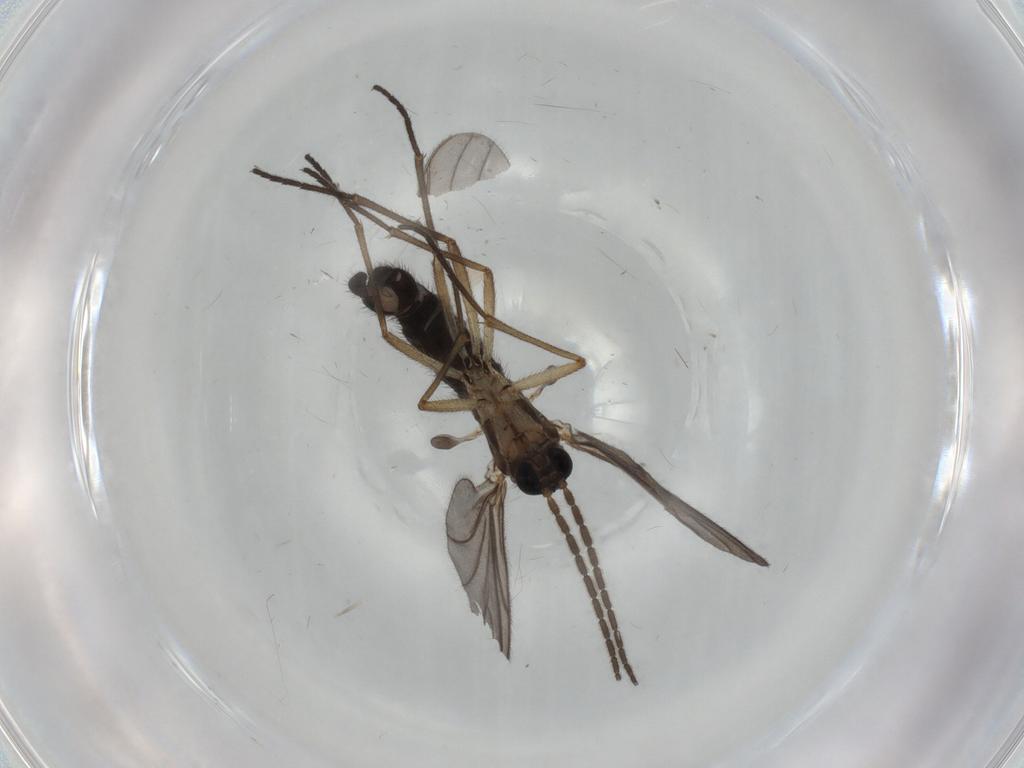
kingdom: Animalia
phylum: Arthropoda
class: Insecta
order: Diptera
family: Sciaridae
